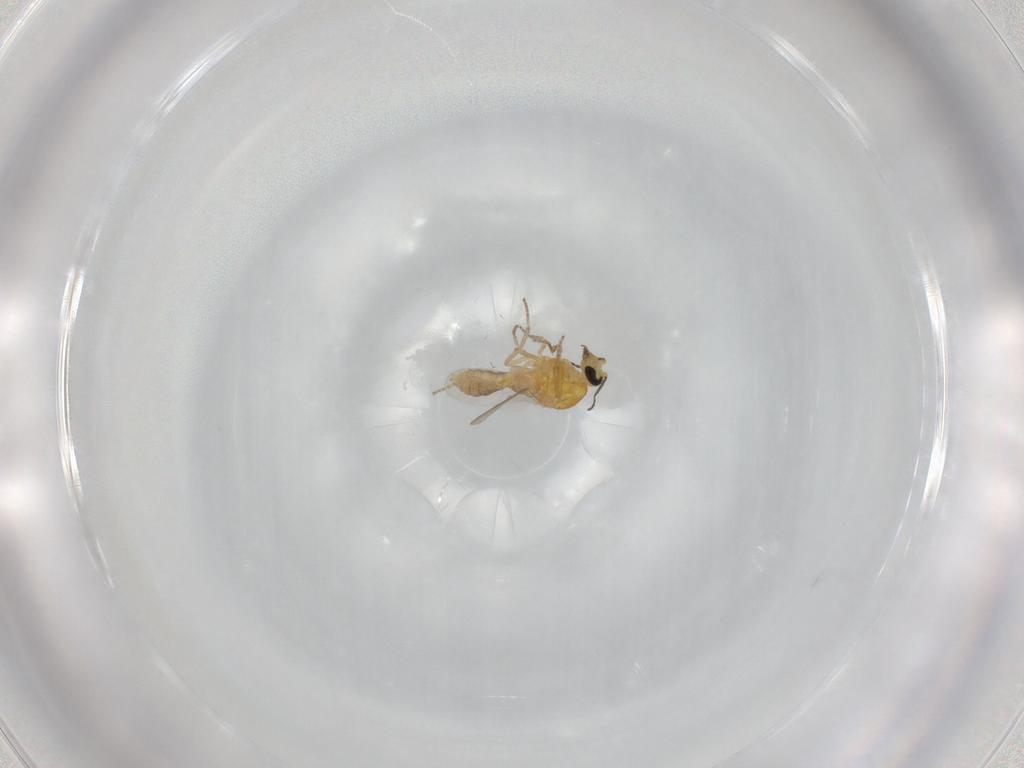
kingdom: Animalia
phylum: Arthropoda
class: Insecta
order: Diptera
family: Ceratopogonidae
